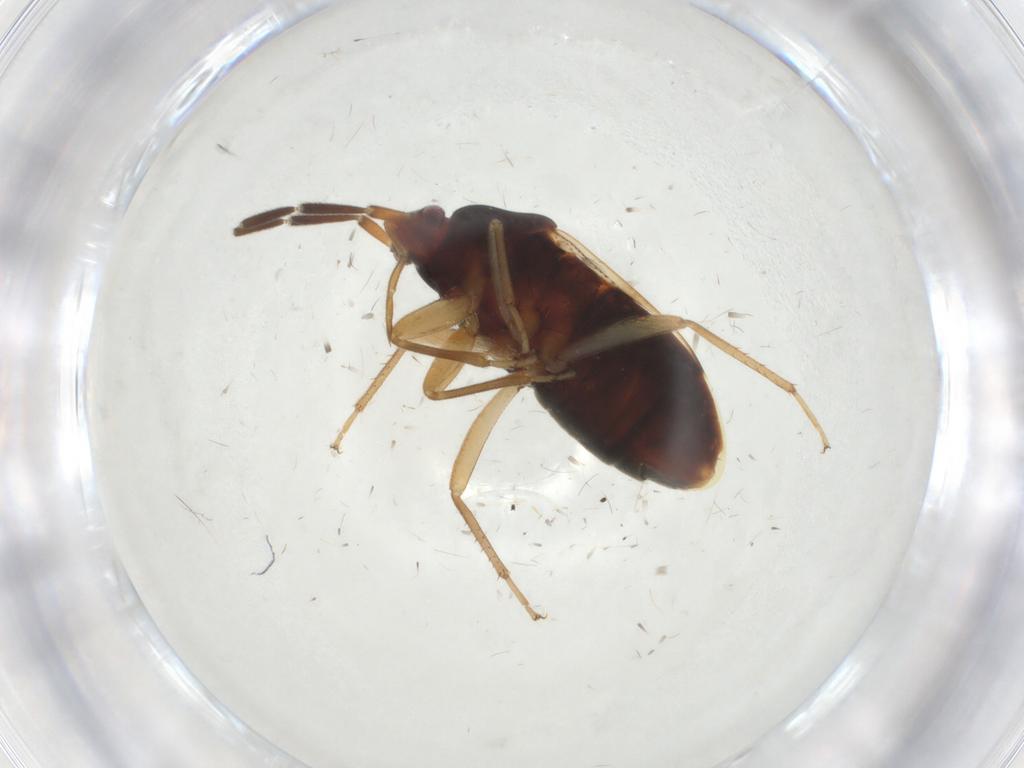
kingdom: Animalia
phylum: Arthropoda
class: Insecta
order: Hemiptera
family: Rhyparochromidae
